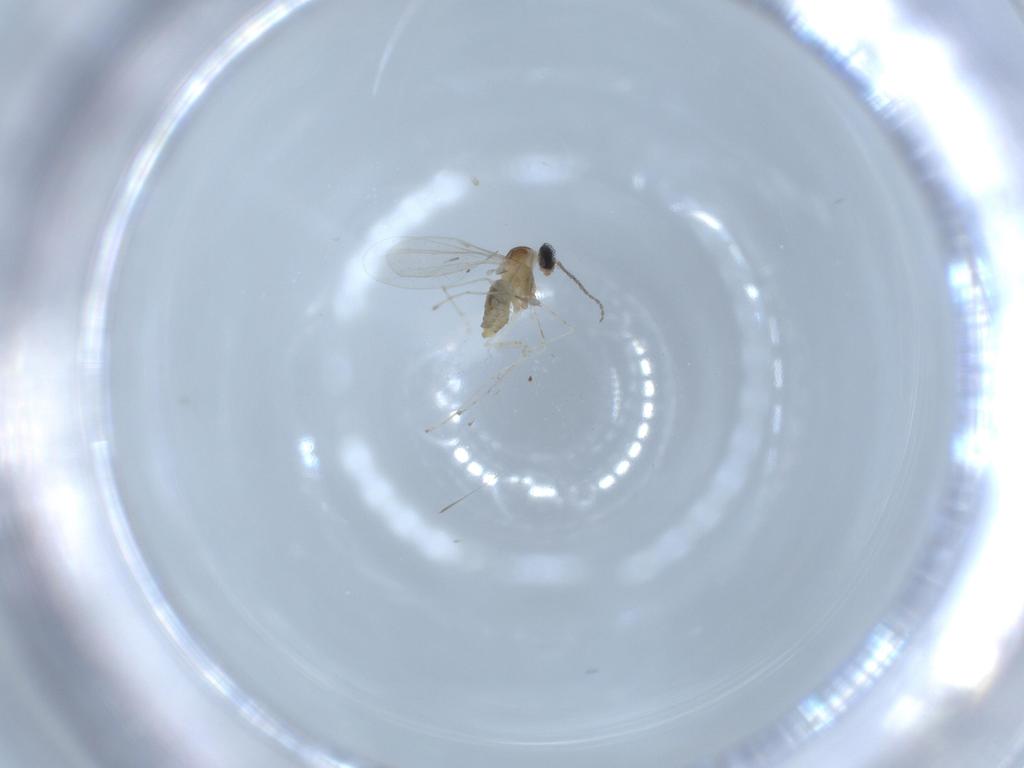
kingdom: Animalia
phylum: Arthropoda
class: Insecta
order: Diptera
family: Cecidomyiidae
